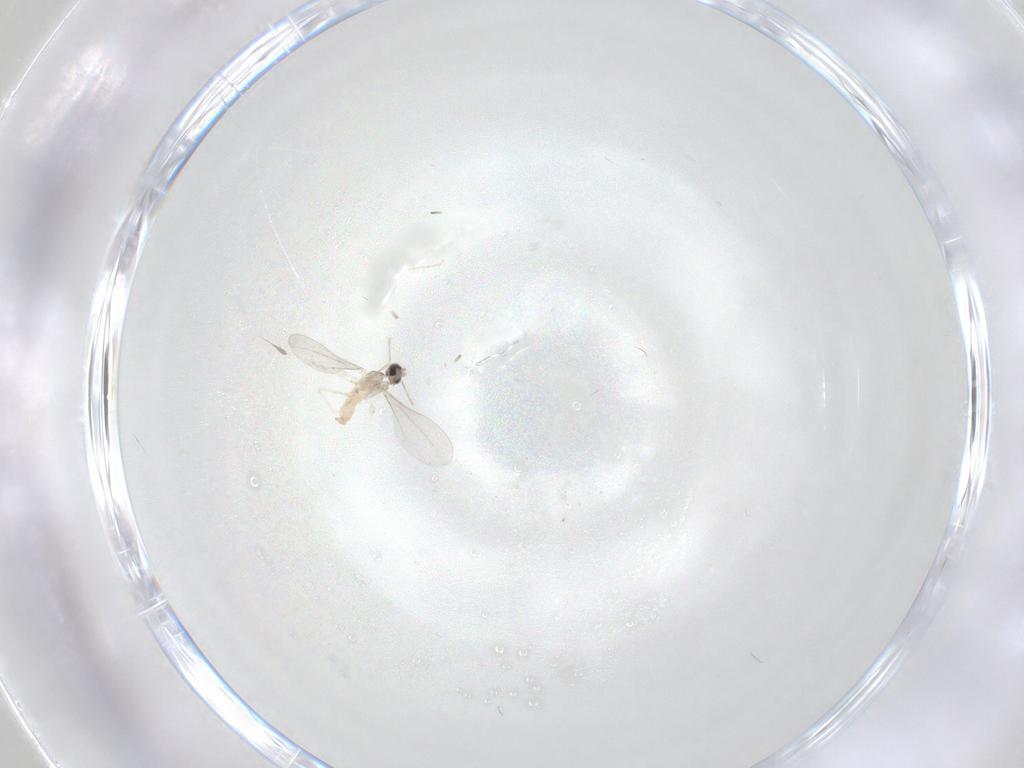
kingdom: Animalia
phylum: Arthropoda
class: Insecta
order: Diptera
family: Cecidomyiidae
